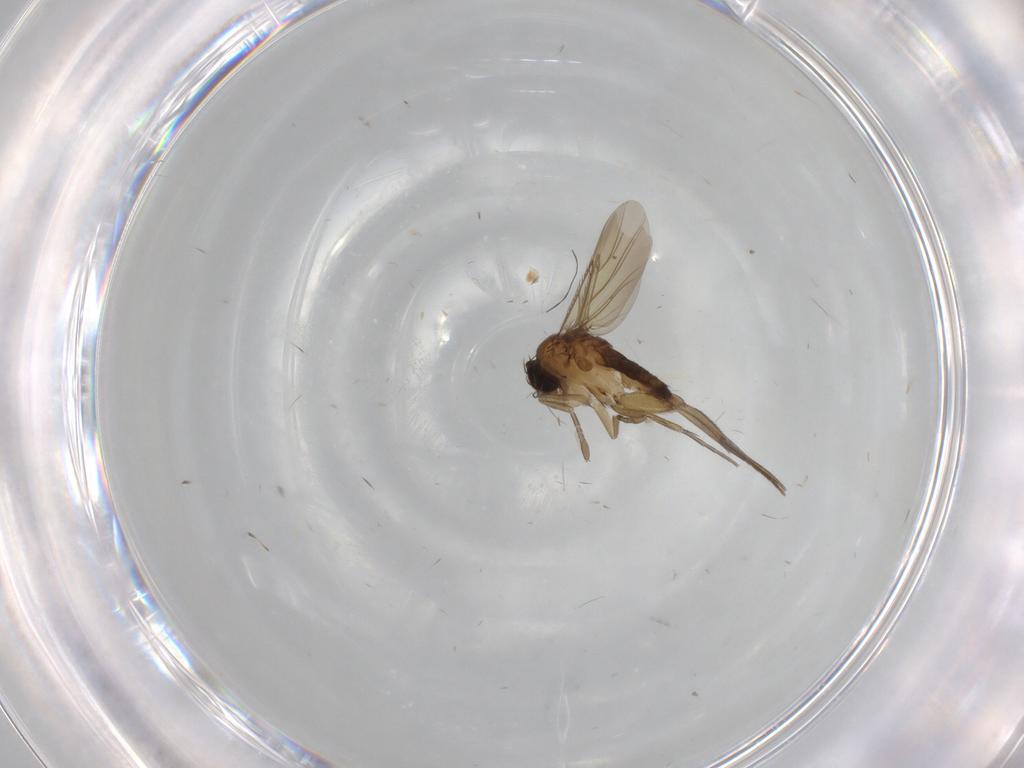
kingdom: Animalia
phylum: Arthropoda
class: Insecta
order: Diptera
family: Phoridae
